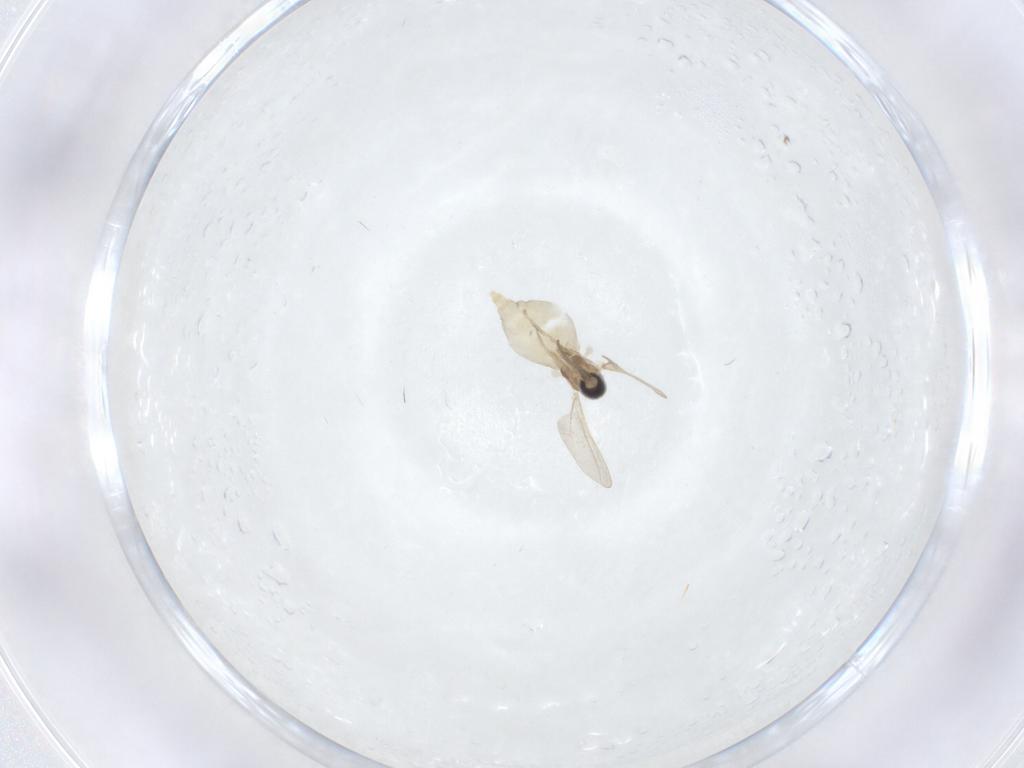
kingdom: Animalia
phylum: Arthropoda
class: Insecta
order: Diptera
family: Cecidomyiidae
